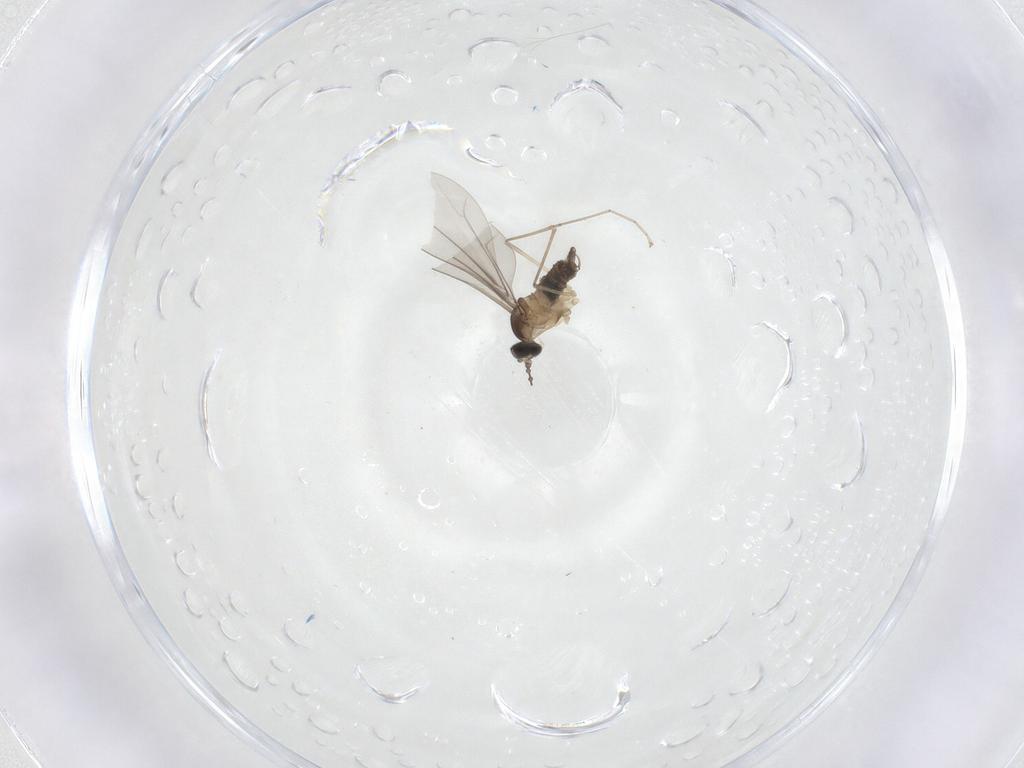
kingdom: Animalia
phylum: Arthropoda
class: Insecta
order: Diptera
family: Cecidomyiidae
